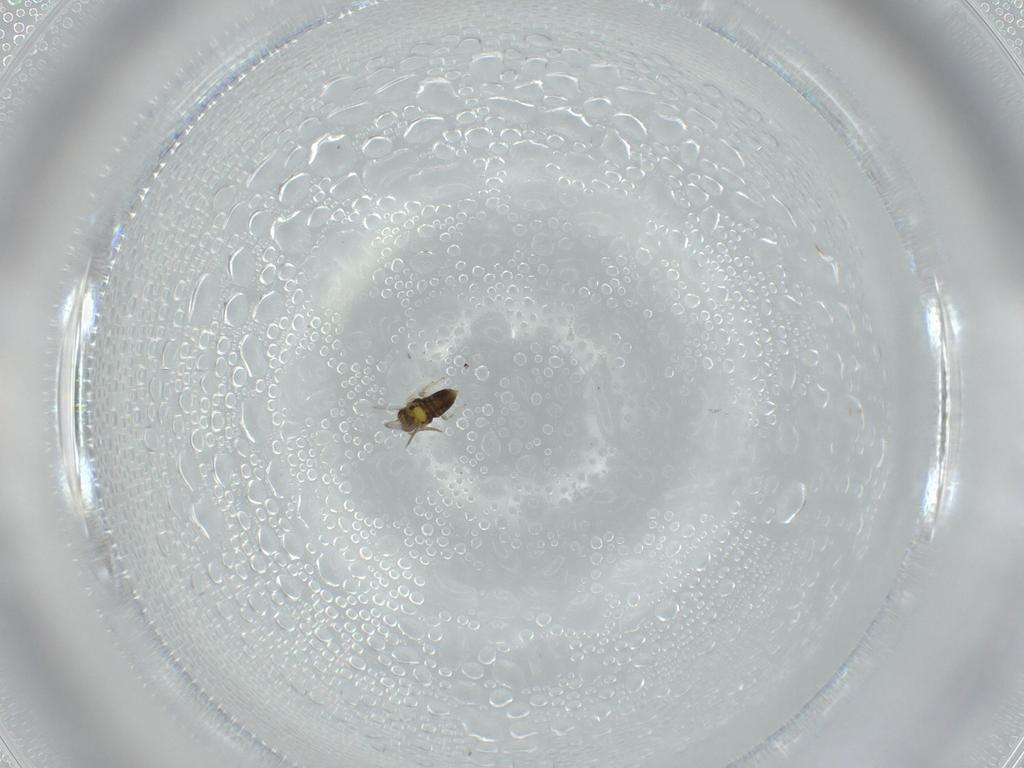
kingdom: Animalia
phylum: Arthropoda
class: Insecta
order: Hymenoptera
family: Aphelinidae
